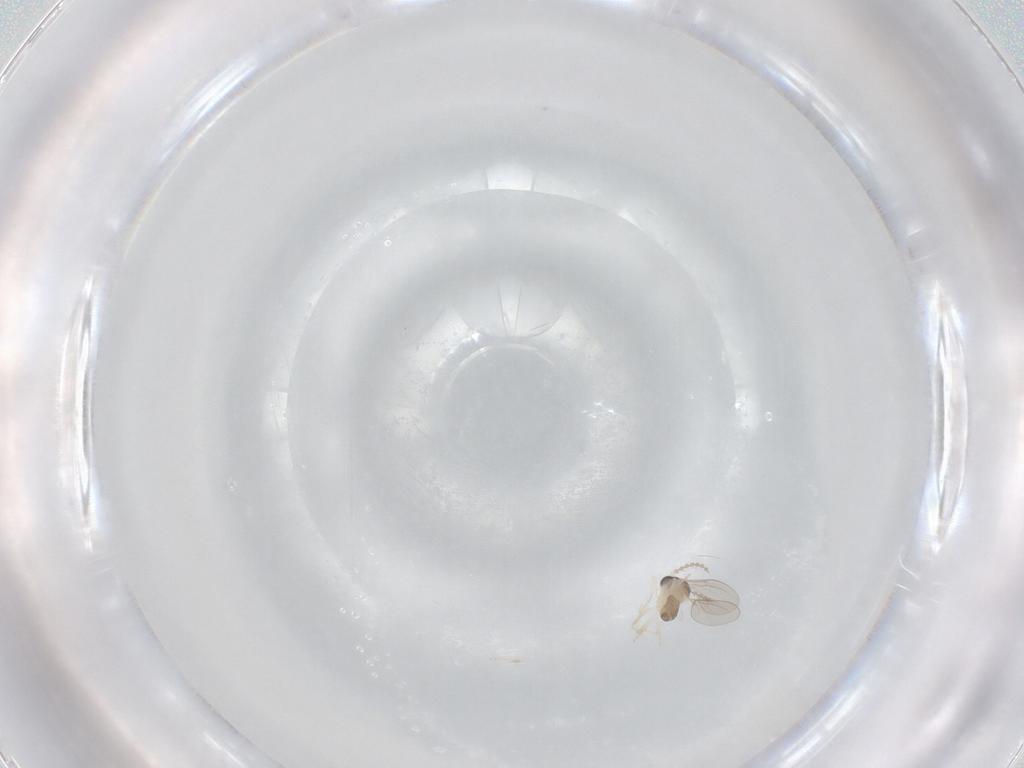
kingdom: Animalia
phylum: Arthropoda
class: Insecta
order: Diptera
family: Cecidomyiidae
